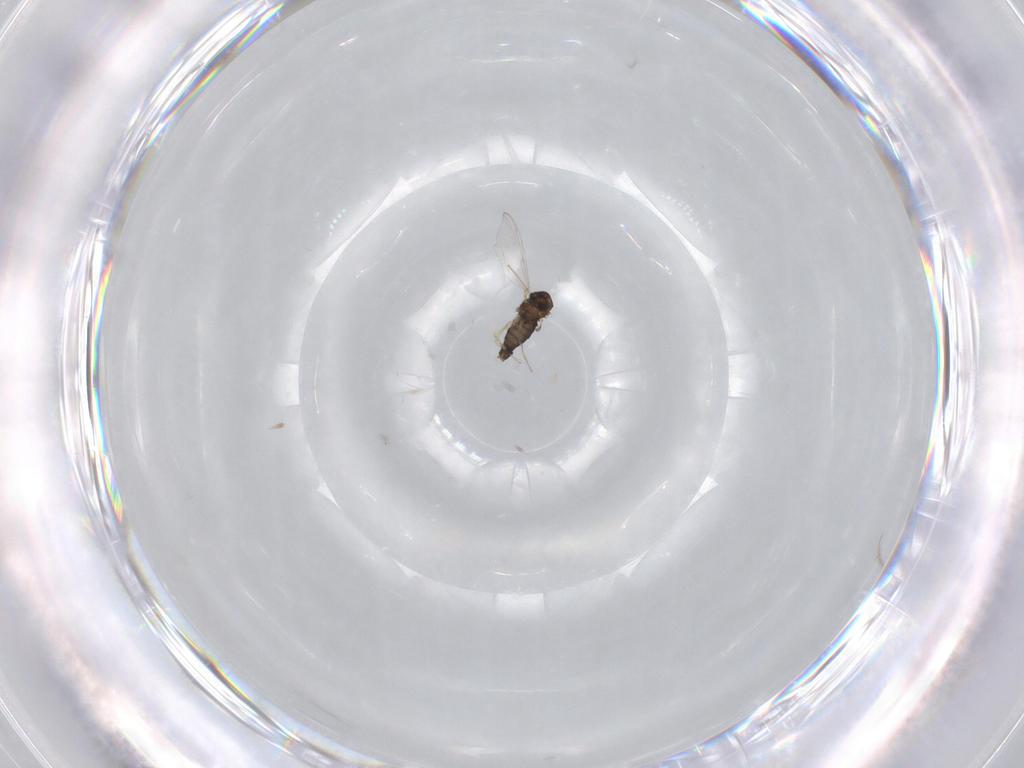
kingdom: Animalia
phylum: Arthropoda
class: Insecta
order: Diptera
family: Chironomidae
